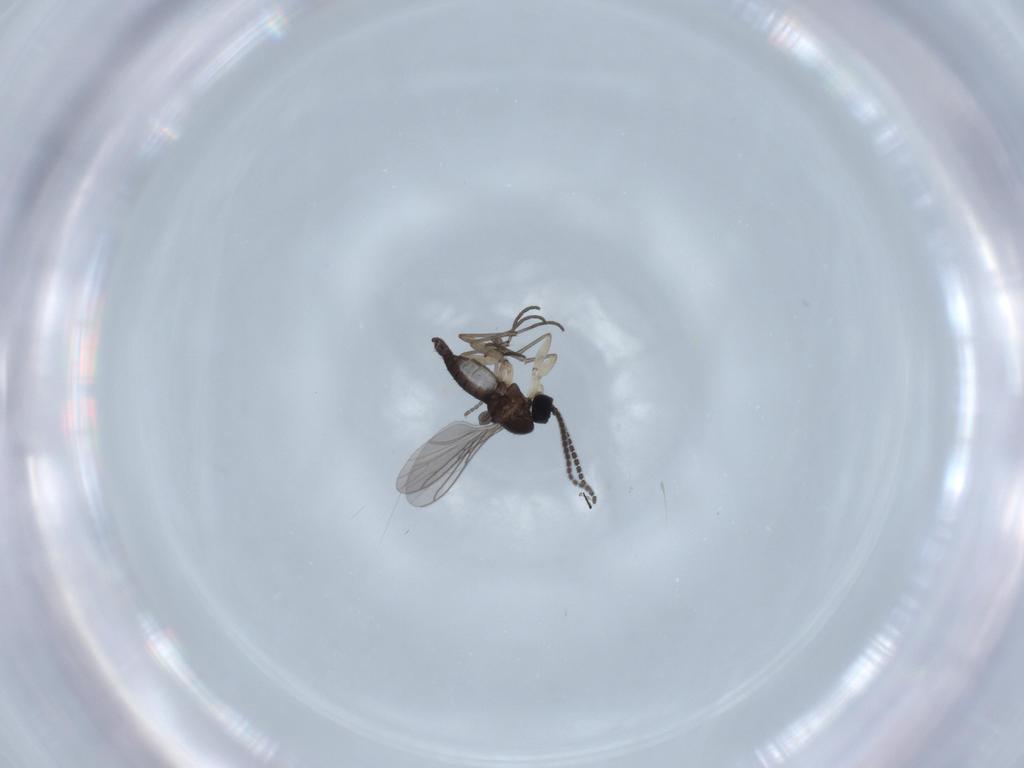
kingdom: Animalia
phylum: Arthropoda
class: Insecta
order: Diptera
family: Sciaridae
